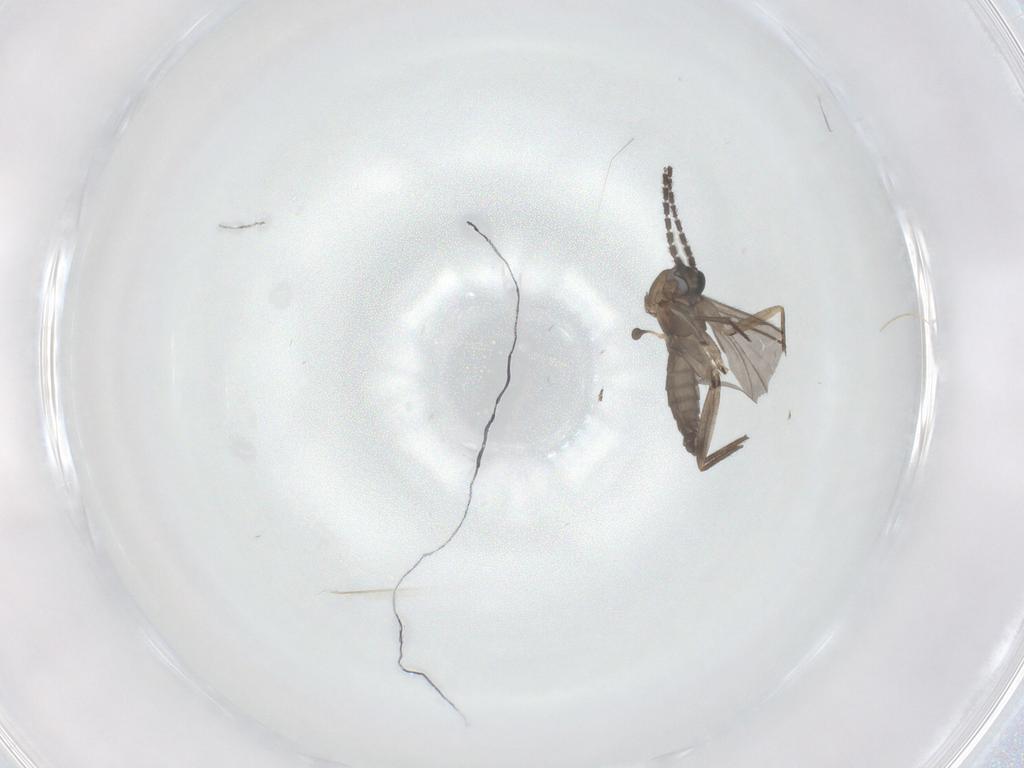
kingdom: Animalia
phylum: Arthropoda
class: Insecta
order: Diptera
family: Sciaridae
